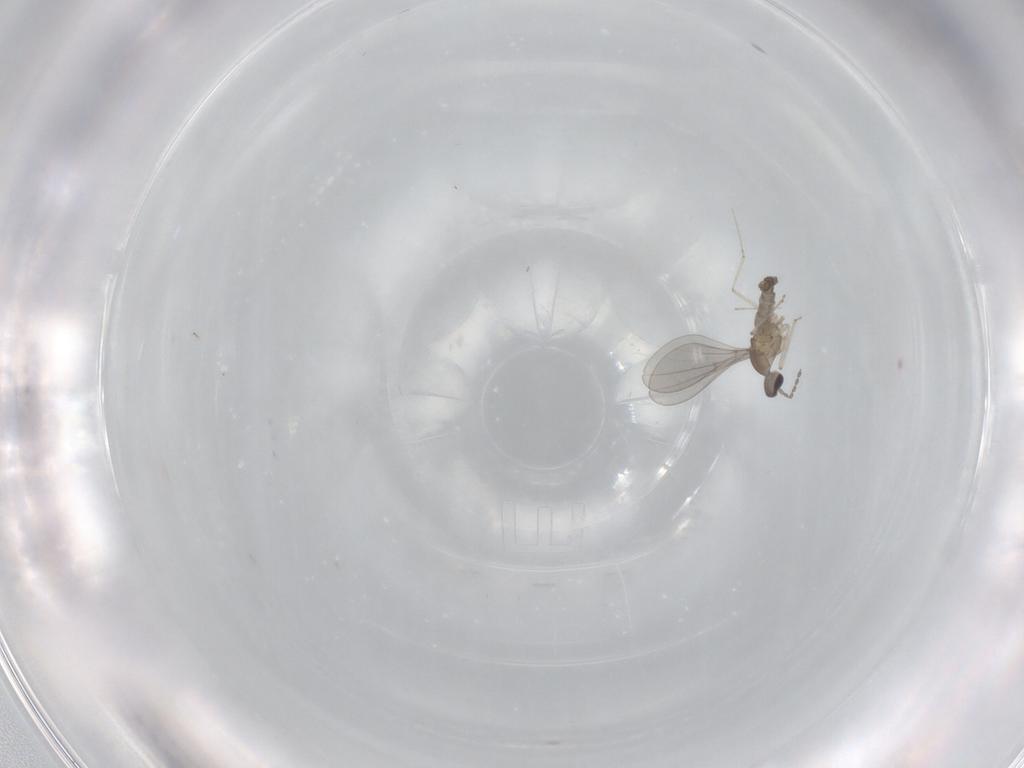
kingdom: Animalia
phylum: Arthropoda
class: Insecta
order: Diptera
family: Cecidomyiidae
